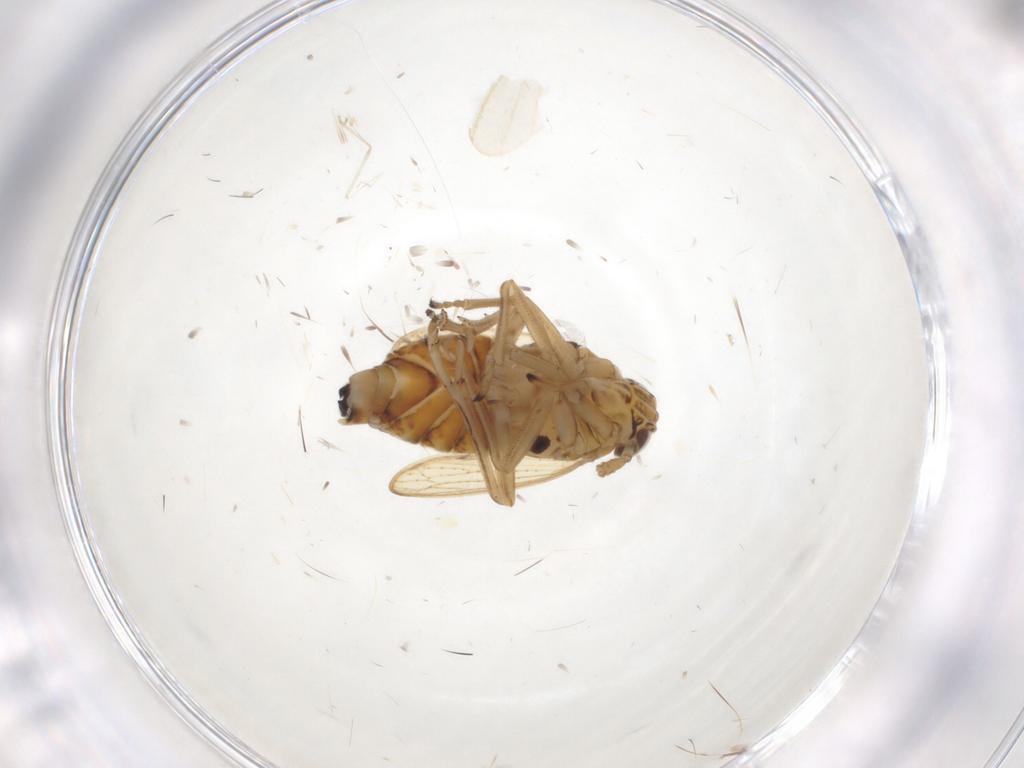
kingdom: Animalia
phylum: Arthropoda
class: Insecta
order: Hemiptera
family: Delphacidae
